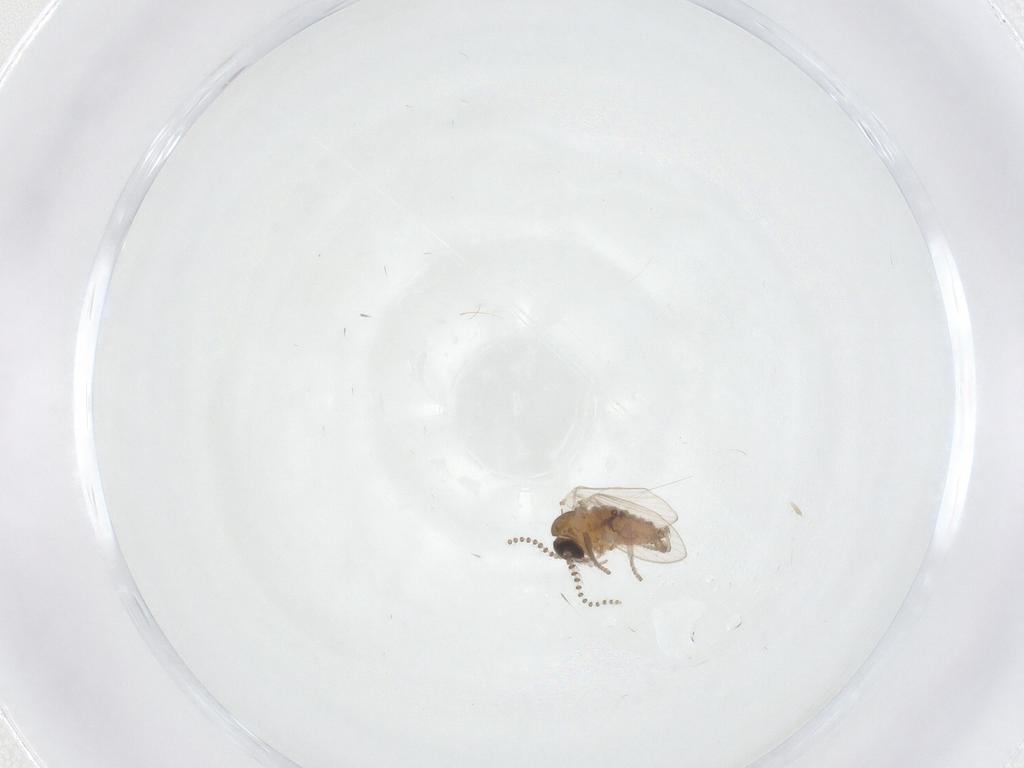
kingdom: Animalia
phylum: Arthropoda
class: Insecta
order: Diptera
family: Psychodidae
